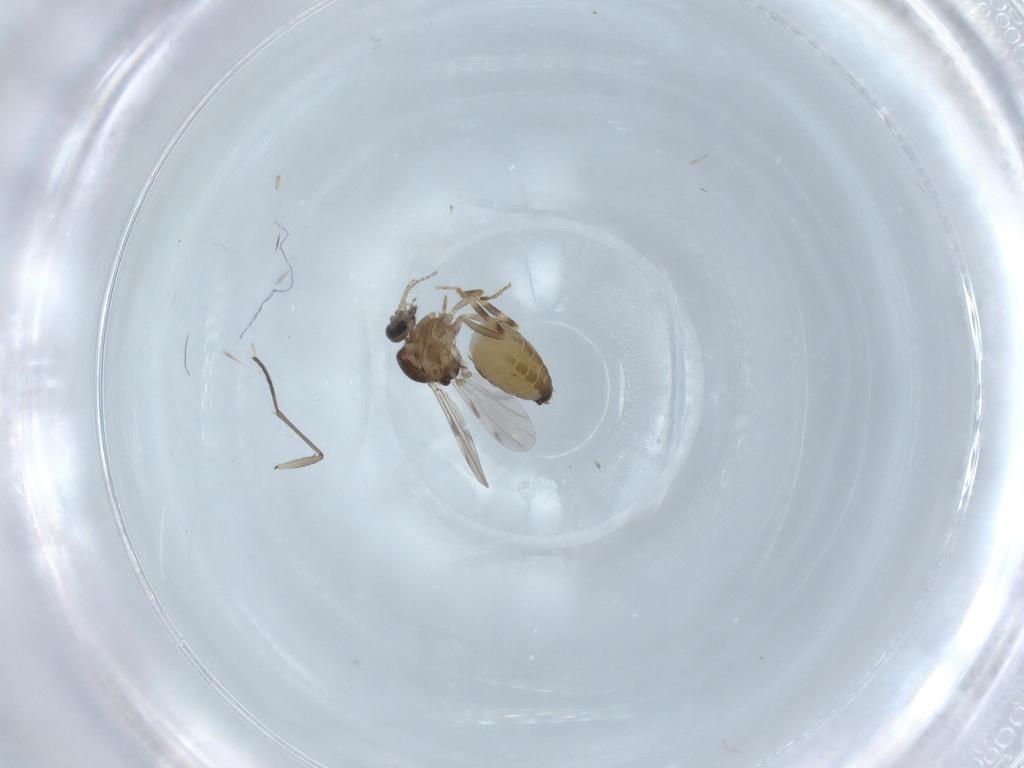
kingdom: Animalia
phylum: Arthropoda
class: Insecta
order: Diptera
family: Ceratopogonidae
